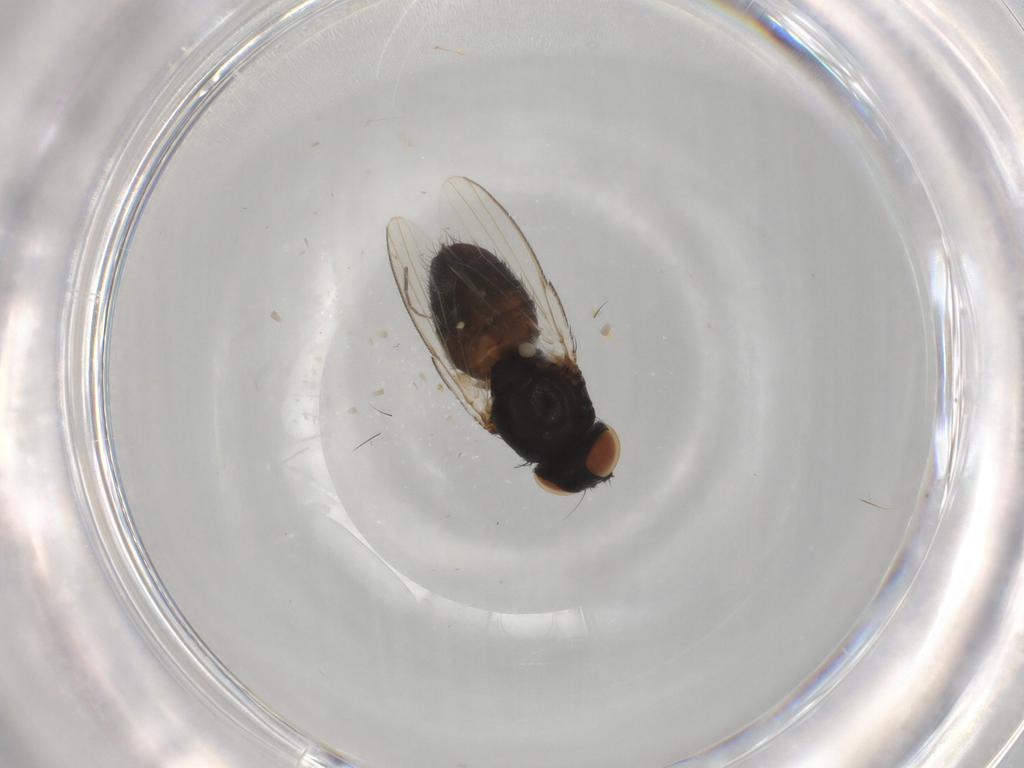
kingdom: Animalia
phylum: Arthropoda
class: Insecta
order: Diptera
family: Milichiidae
